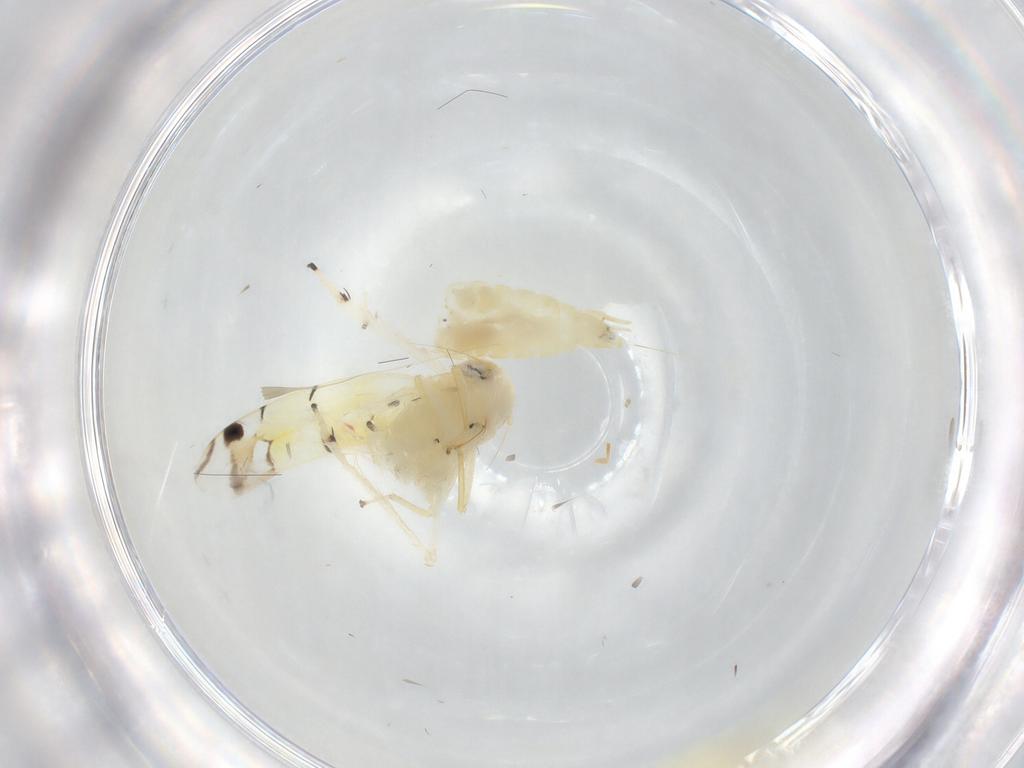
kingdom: Animalia
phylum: Arthropoda
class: Insecta
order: Hemiptera
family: Cicadellidae
